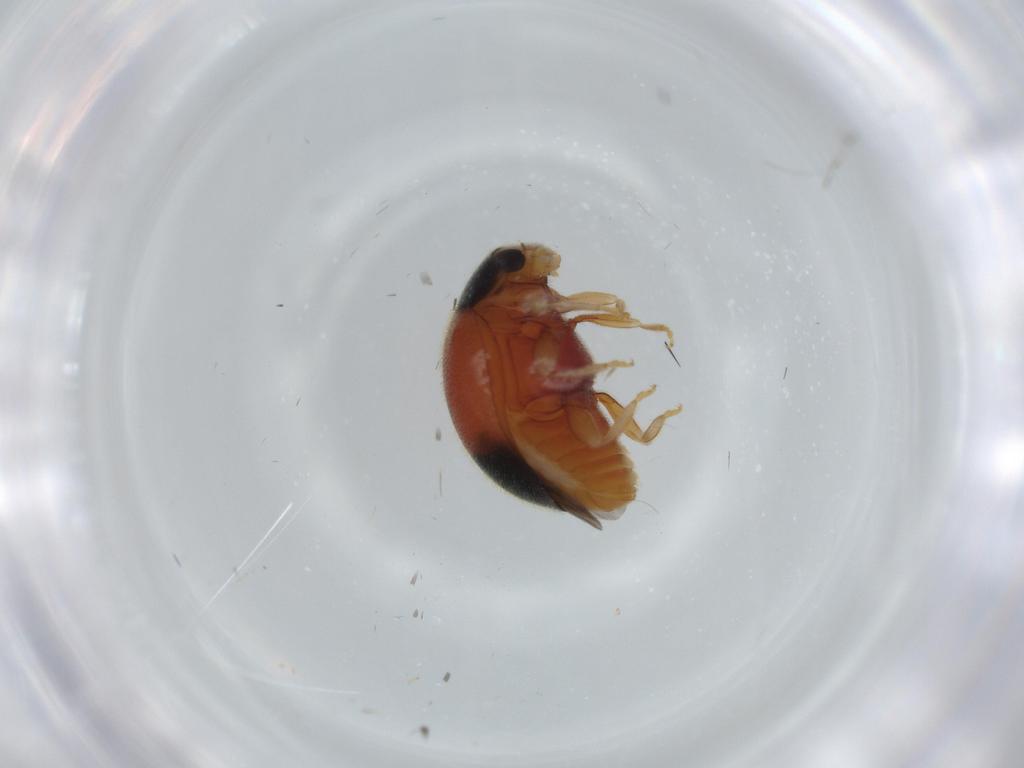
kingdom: Animalia
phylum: Arthropoda
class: Insecta
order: Coleoptera
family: Coccinellidae
